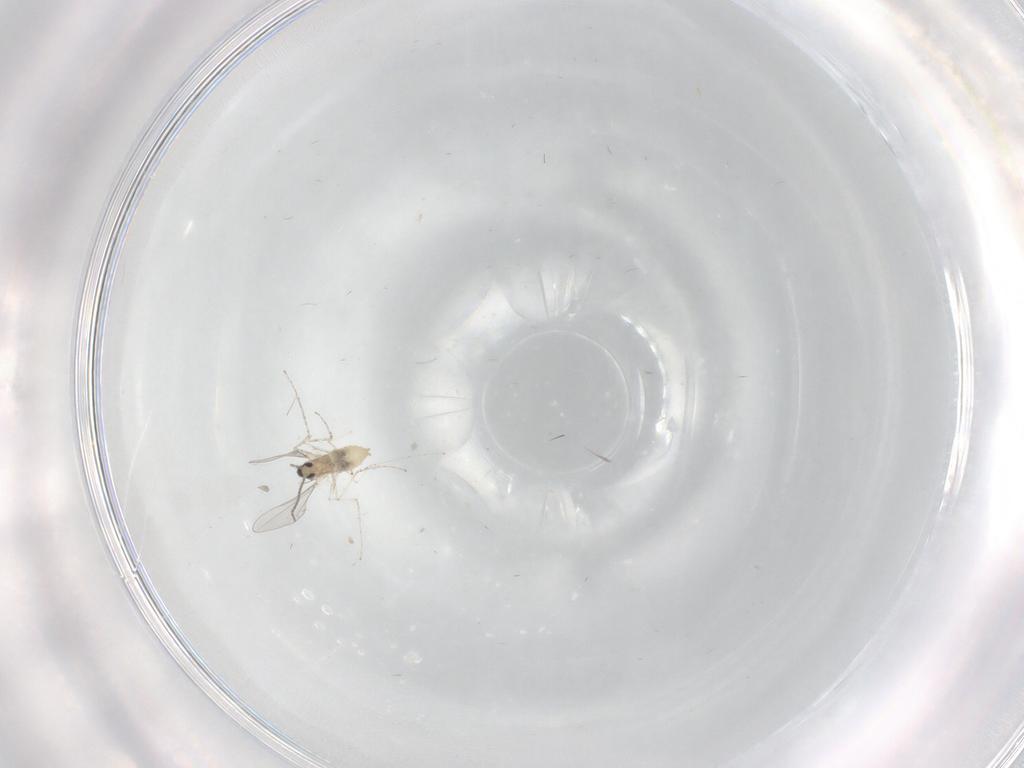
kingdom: Animalia
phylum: Arthropoda
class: Insecta
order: Diptera
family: Cecidomyiidae
